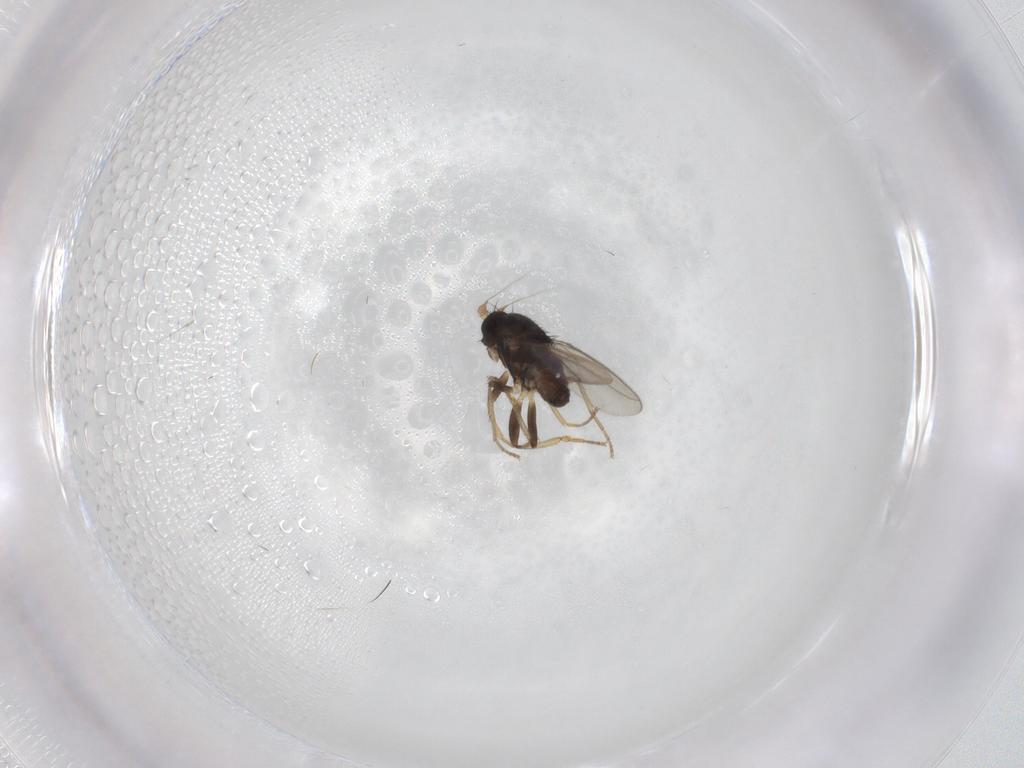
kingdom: Animalia
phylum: Arthropoda
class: Insecta
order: Diptera
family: Sphaeroceridae
